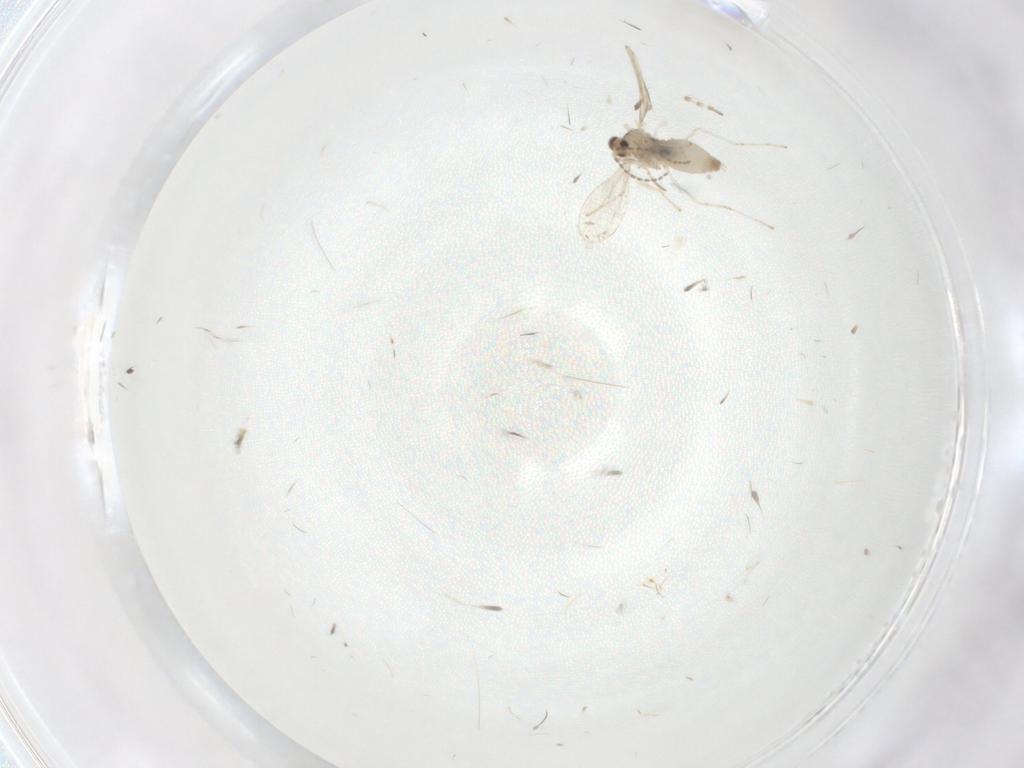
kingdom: Animalia
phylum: Arthropoda
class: Insecta
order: Diptera
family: Cecidomyiidae
